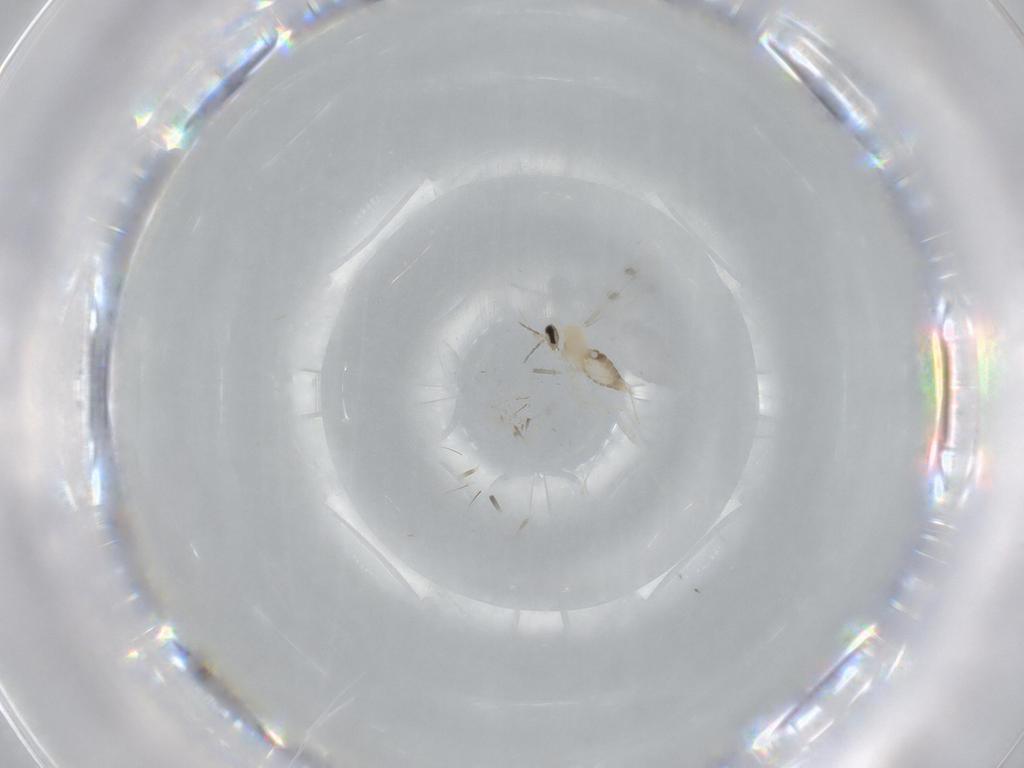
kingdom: Animalia
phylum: Arthropoda
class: Insecta
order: Diptera
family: Cecidomyiidae
